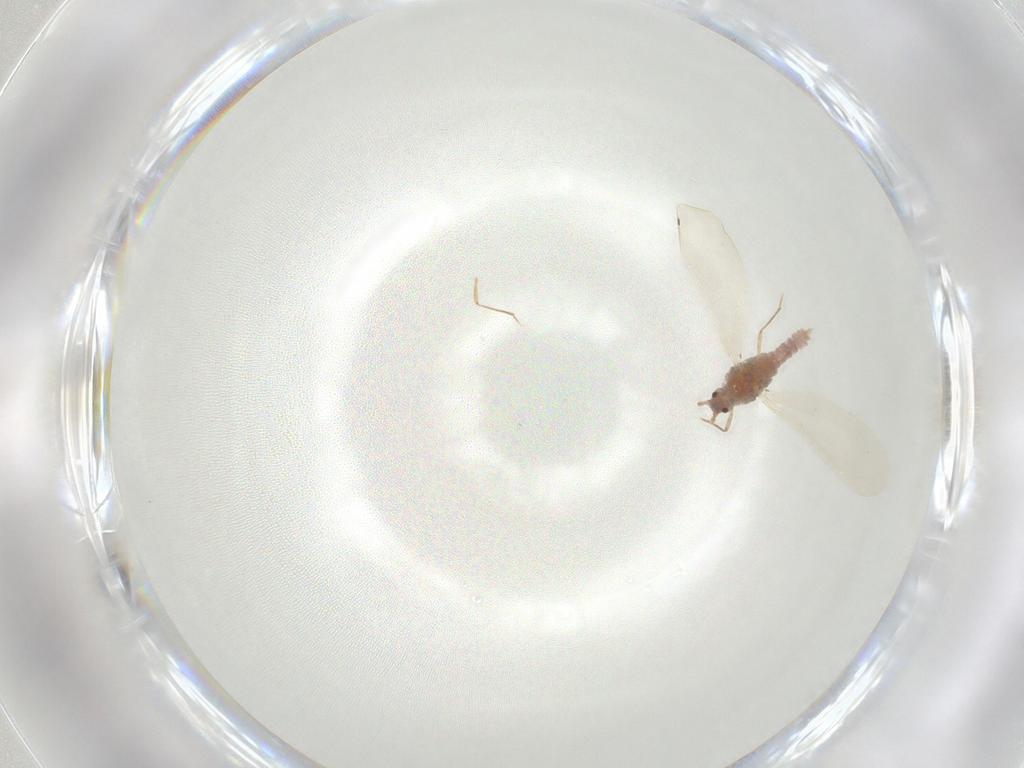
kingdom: Animalia
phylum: Arthropoda
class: Insecta
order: Hemiptera
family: Pseudococcidae
